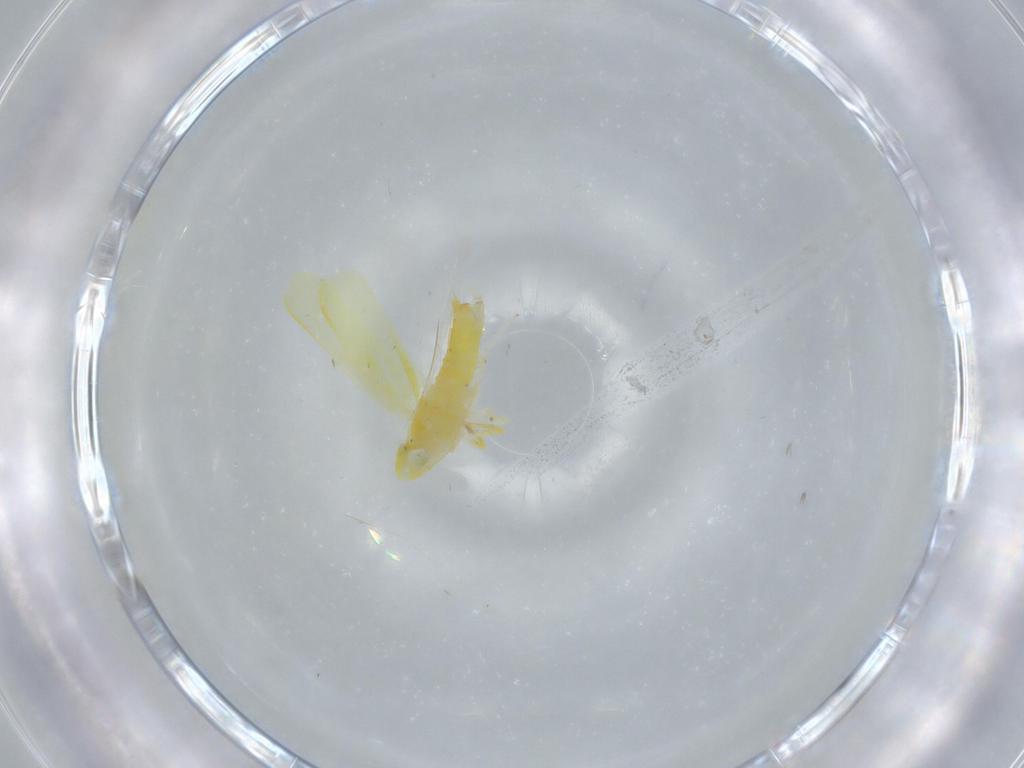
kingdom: Animalia
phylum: Arthropoda
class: Insecta
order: Hemiptera
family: Cicadellidae
